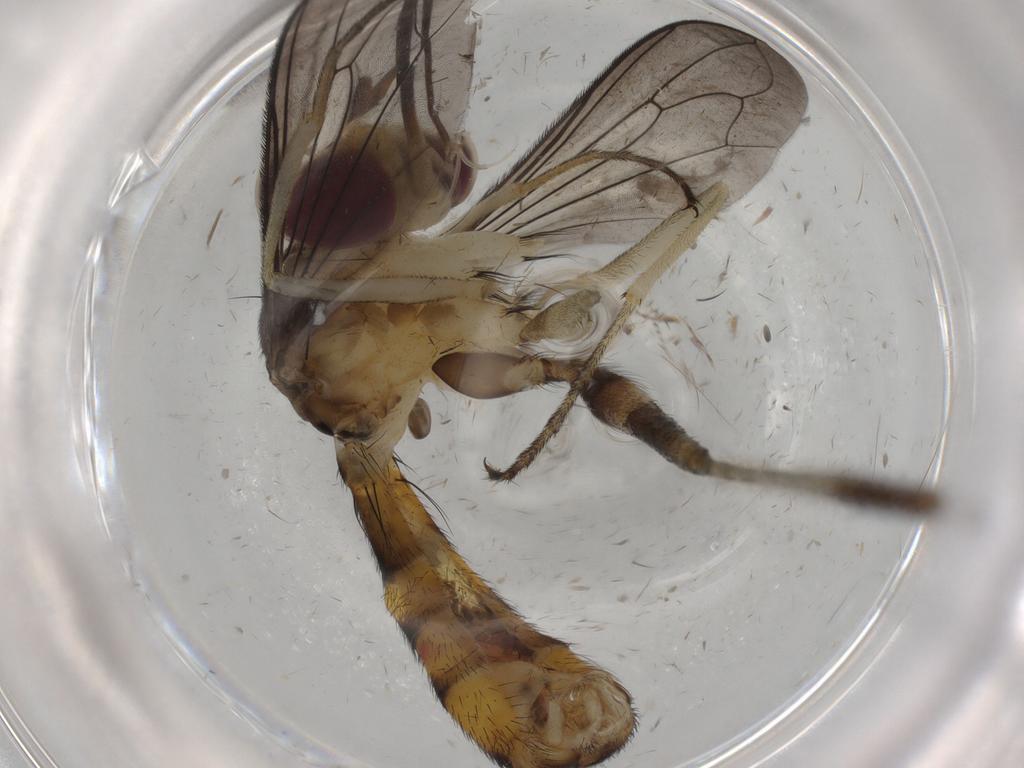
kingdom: Animalia
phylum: Arthropoda
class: Insecta
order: Diptera
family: Sciaridae
